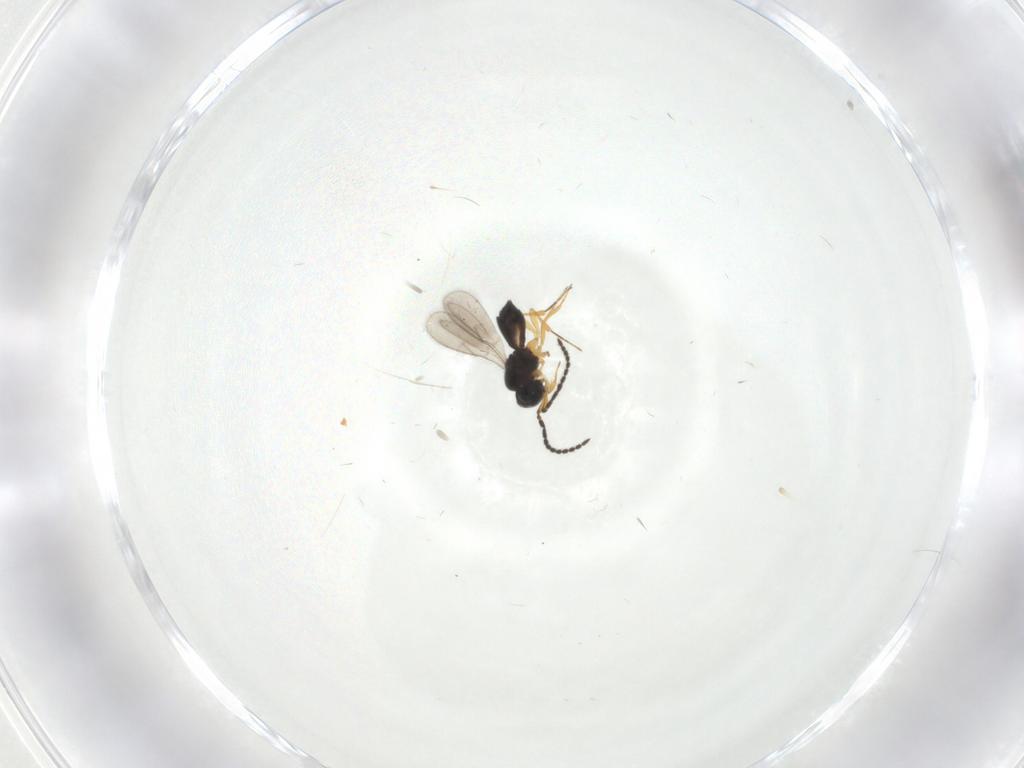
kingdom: Animalia
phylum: Arthropoda
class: Insecta
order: Hymenoptera
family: Scelionidae
